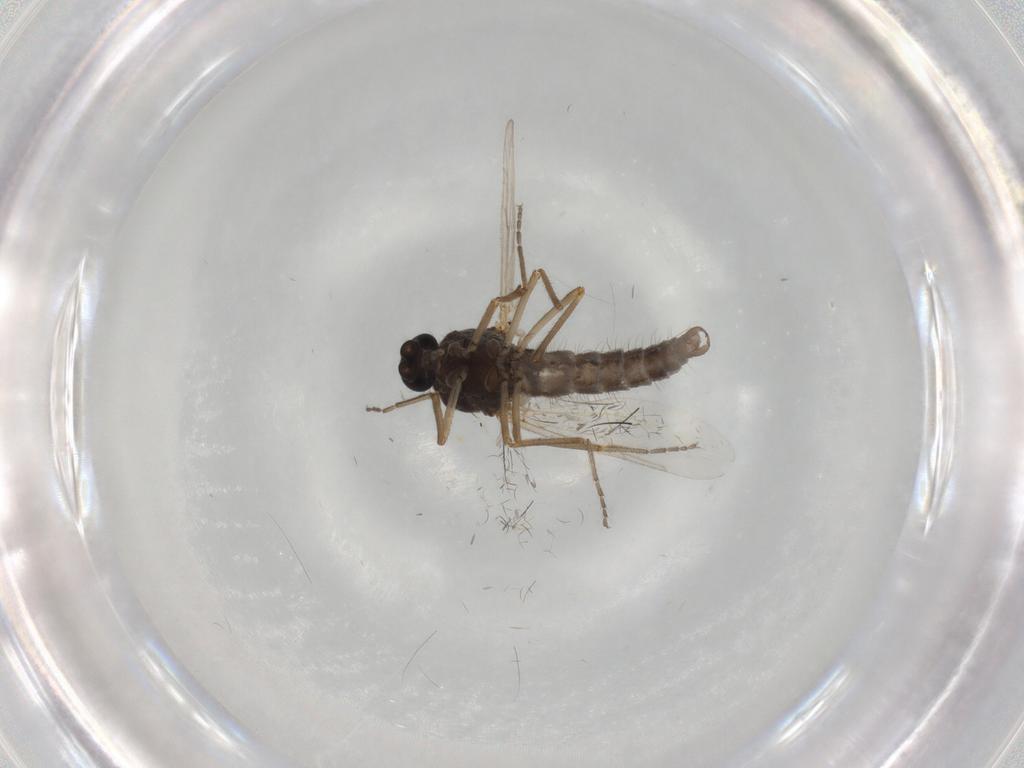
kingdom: Animalia
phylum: Arthropoda
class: Insecta
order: Diptera
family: Ceratopogonidae
